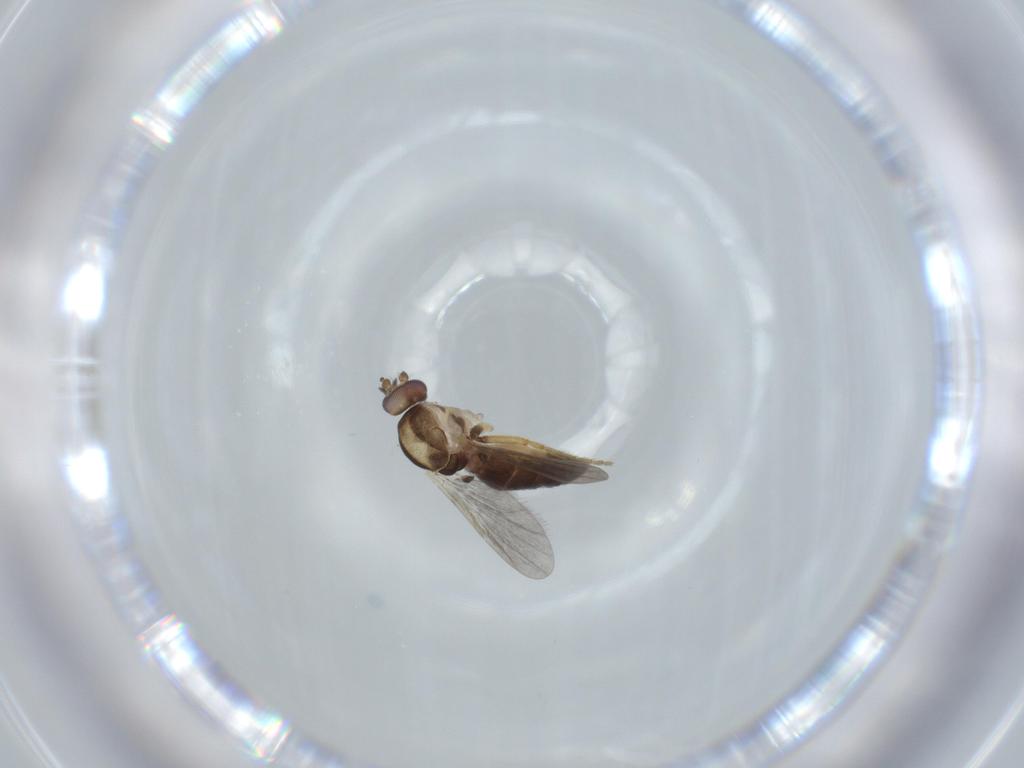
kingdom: Animalia
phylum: Arthropoda
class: Insecta
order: Diptera
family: Ceratopogonidae
